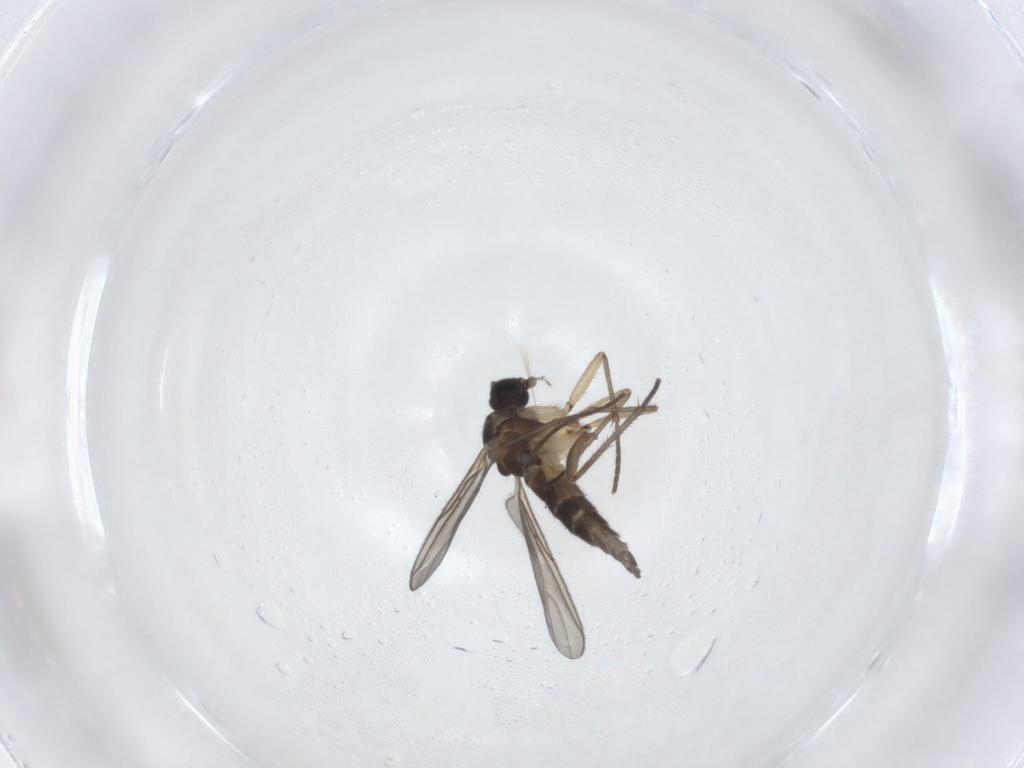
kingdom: Animalia
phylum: Arthropoda
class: Insecta
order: Diptera
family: Sciaridae
